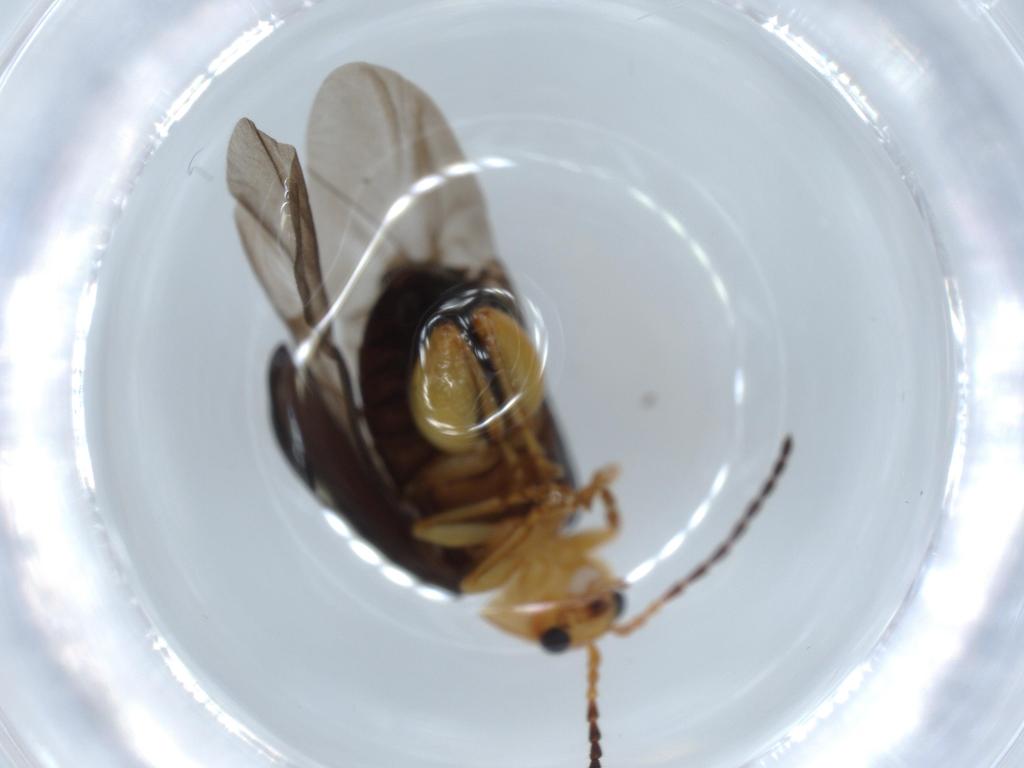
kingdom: Animalia
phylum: Arthropoda
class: Insecta
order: Coleoptera
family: Chrysomelidae
